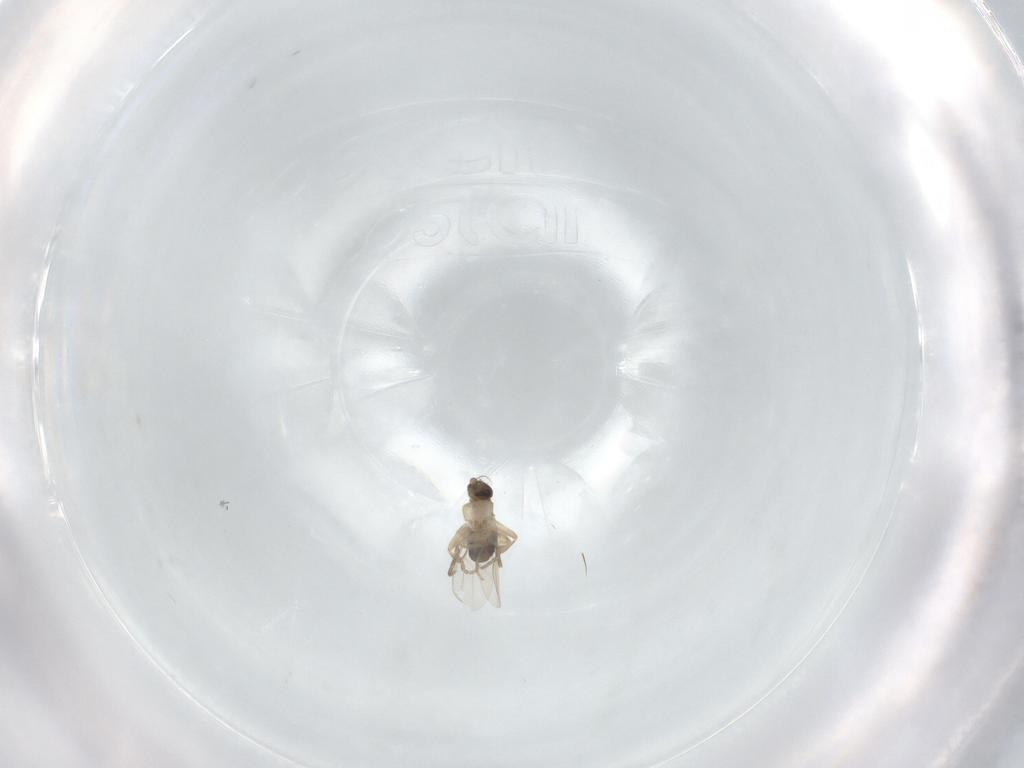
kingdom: Animalia
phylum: Arthropoda
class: Insecta
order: Diptera
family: Phoridae
